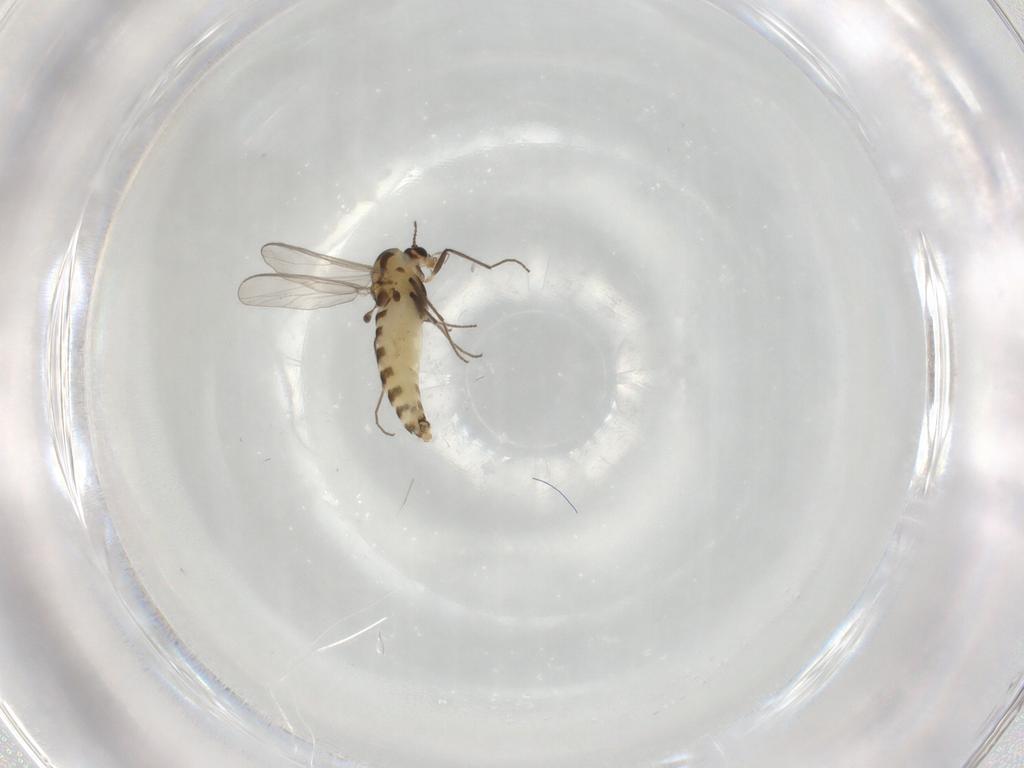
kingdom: Animalia
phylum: Arthropoda
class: Insecta
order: Diptera
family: Chironomidae
